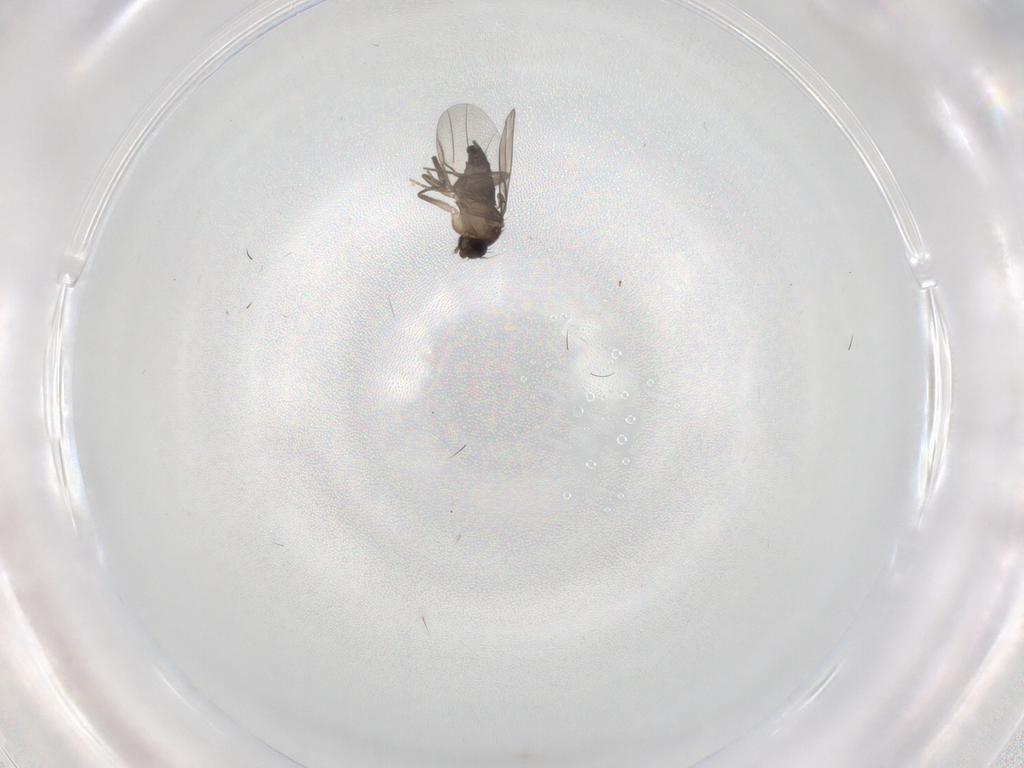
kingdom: Animalia
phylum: Arthropoda
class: Insecta
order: Diptera
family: Phoridae
